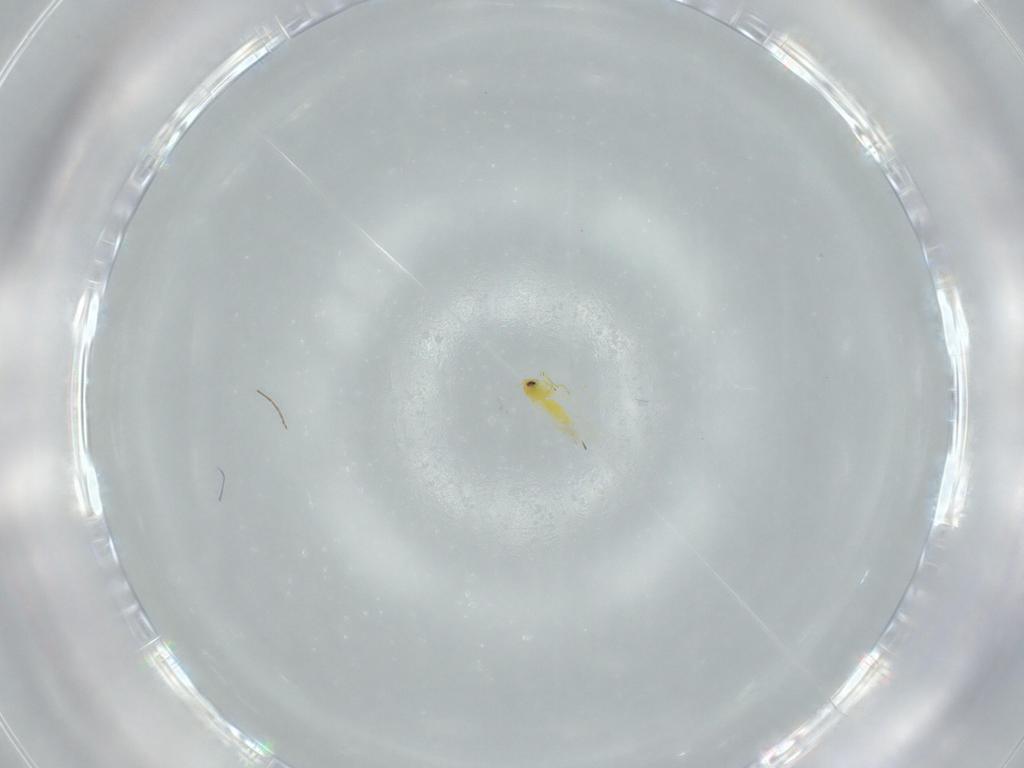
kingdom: Animalia
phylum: Arthropoda
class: Insecta
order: Hemiptera
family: Aleyrodidae
